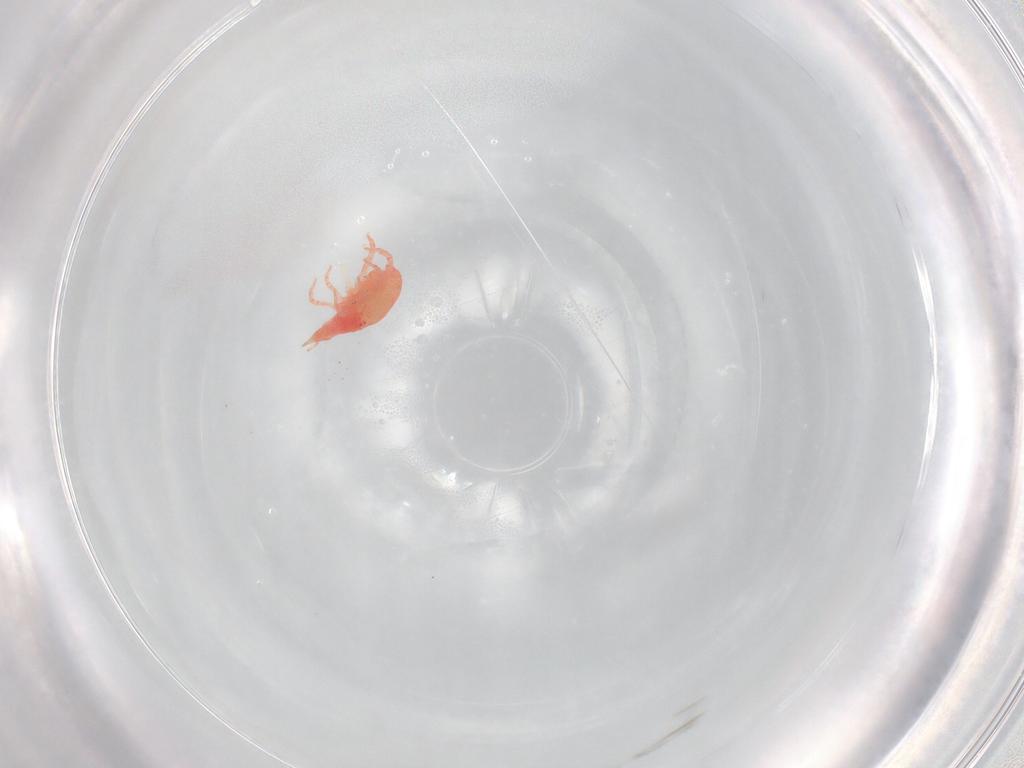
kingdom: Animalia
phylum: Arthropoda
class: Arachnida
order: Trombidiformes
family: Bdellidae
